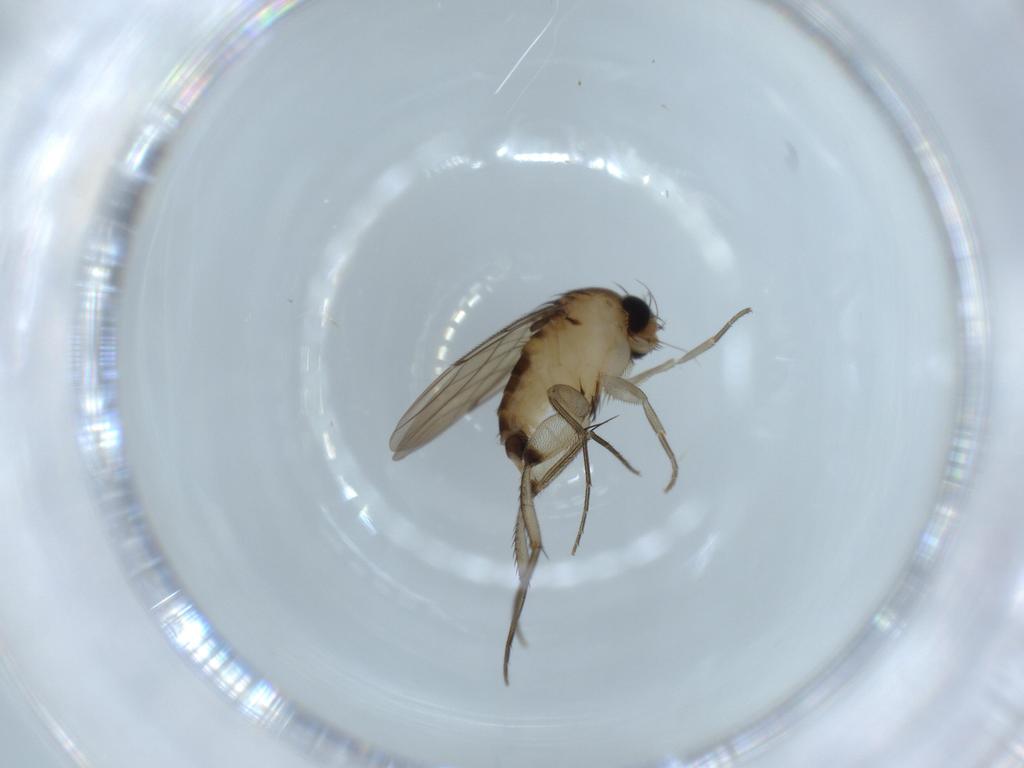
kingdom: Animalia
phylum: Arthropoda
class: Insecta
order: Diptera
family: Phoridae
